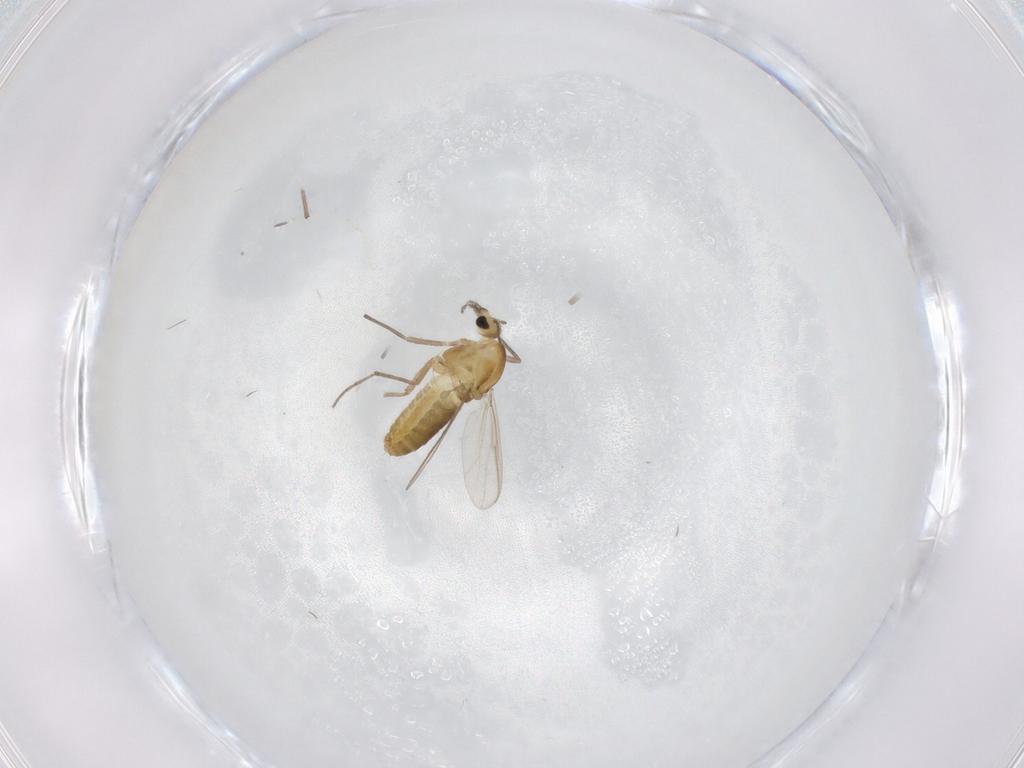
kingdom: Animalia
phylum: Arthropoda
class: Insecta
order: Diptera
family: Chironomidae
